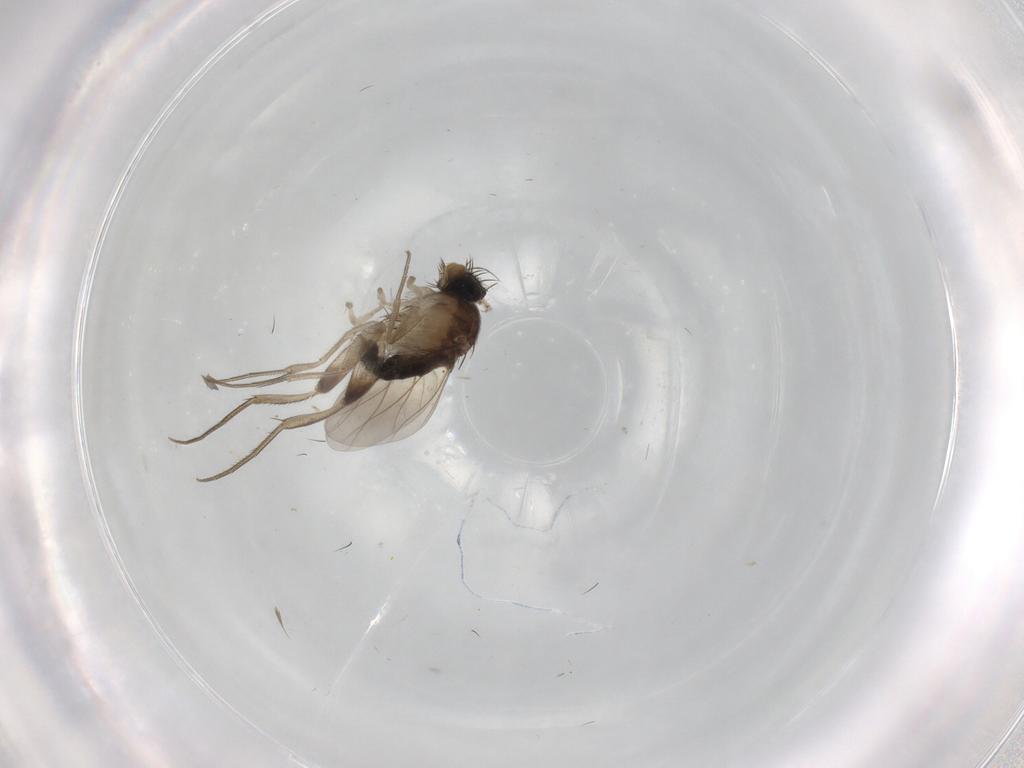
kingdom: Animalia
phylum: Arthropoda
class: Insecta
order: Diptera
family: Phoridae
